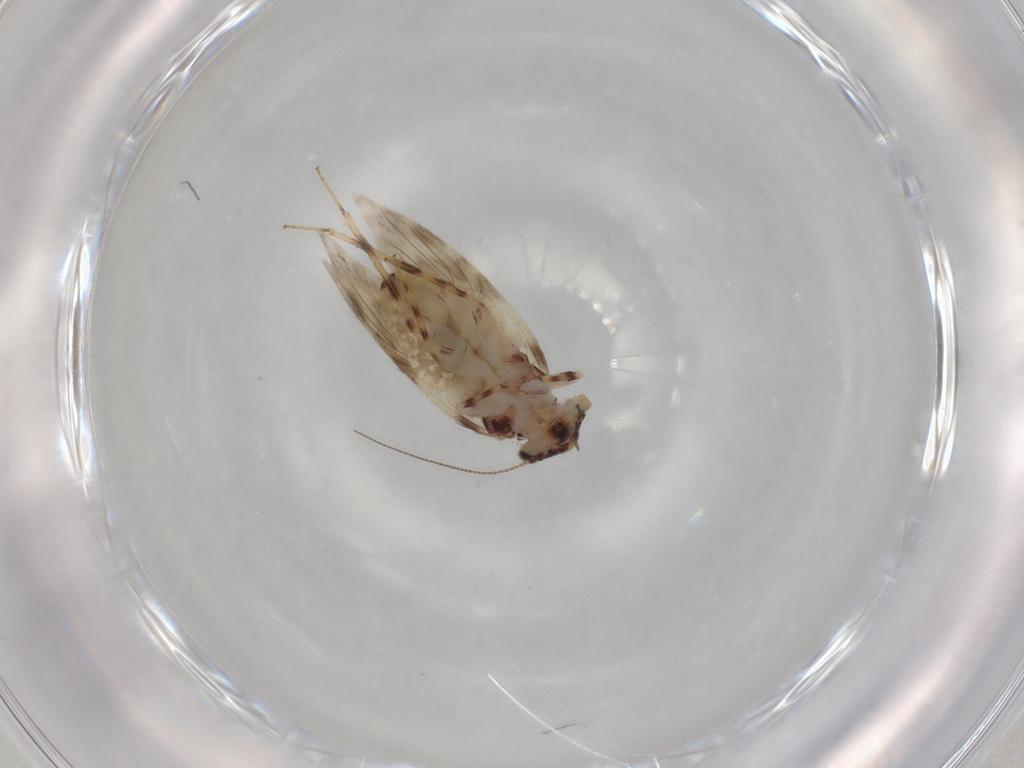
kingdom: Animalia
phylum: Arthropoda
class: Insecta
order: Psocodea
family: Lepidopsocidae
